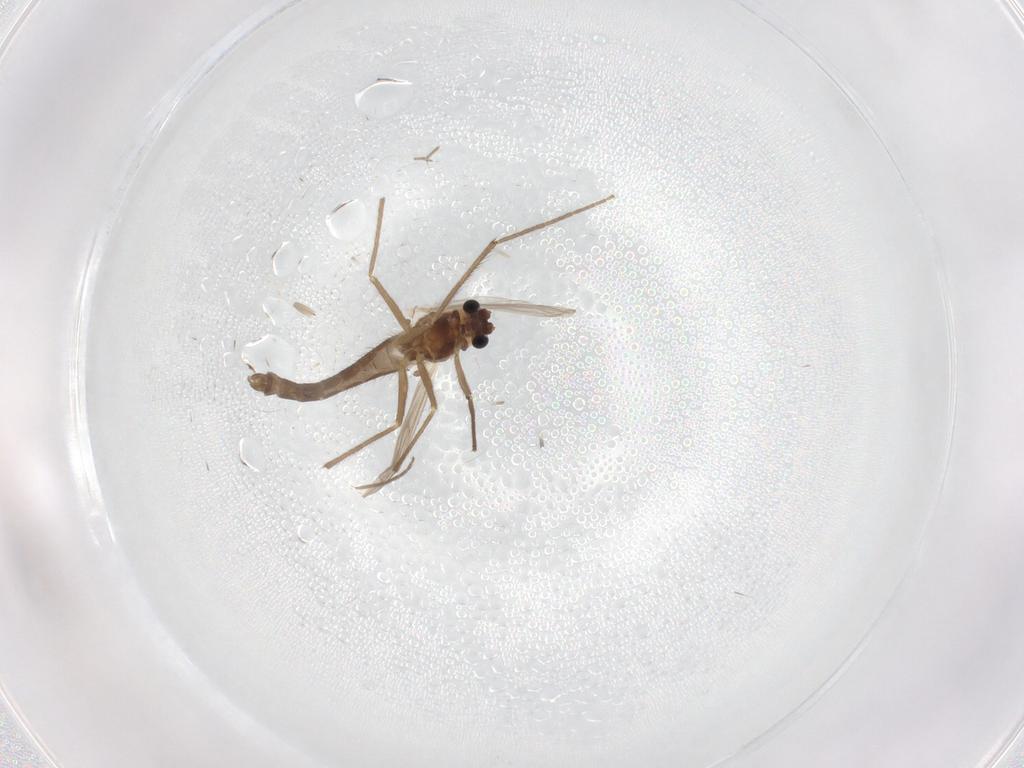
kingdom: Animalia
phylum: Arthropoda
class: Insecta
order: Diptera
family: Chironomidae
